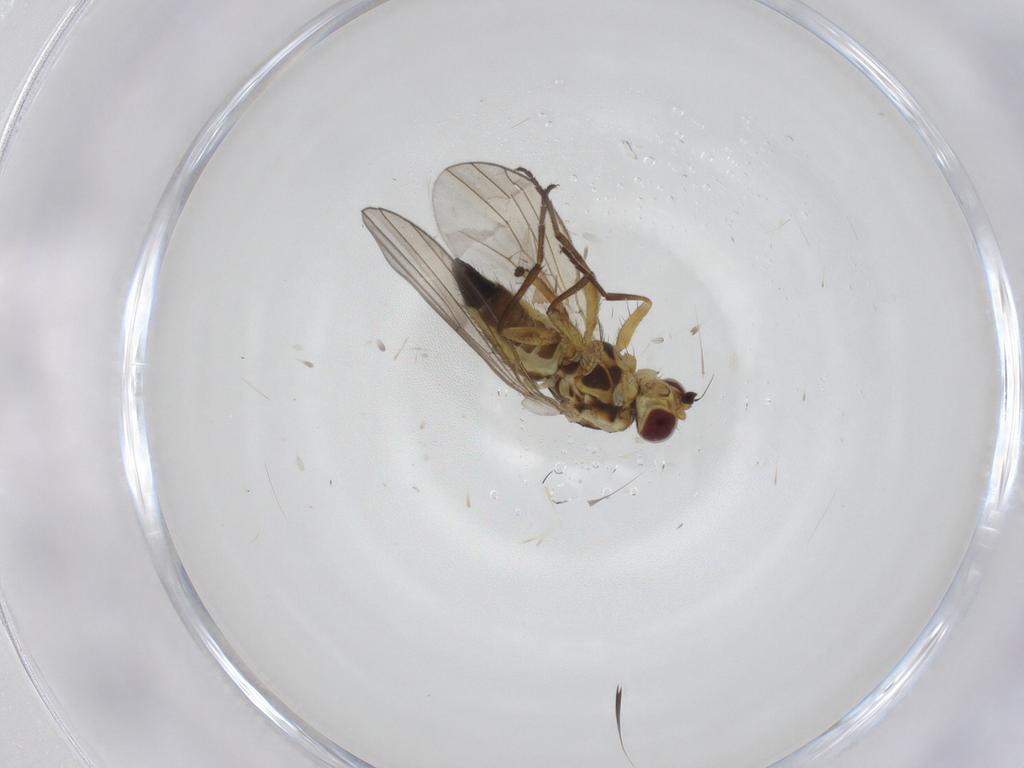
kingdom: Animalia
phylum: Arthropoda
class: Insecta
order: Diptera
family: Agromyzidae
